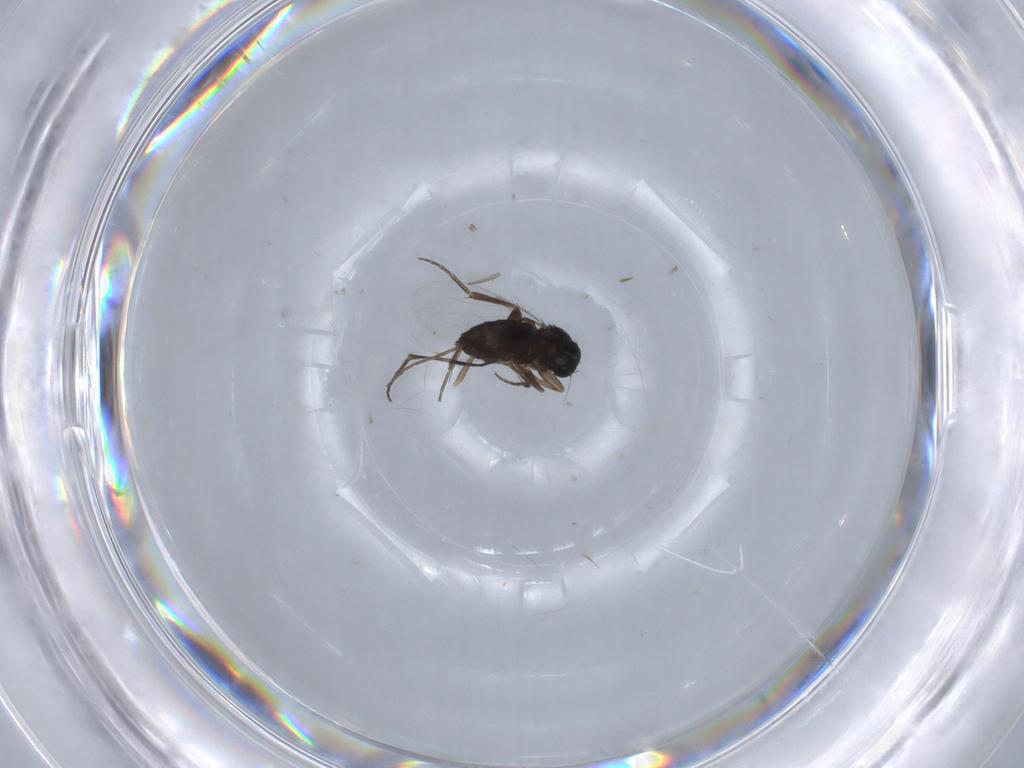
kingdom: Animalia
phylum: Arthropoda
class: Insecta
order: Diptera
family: Phoridae
